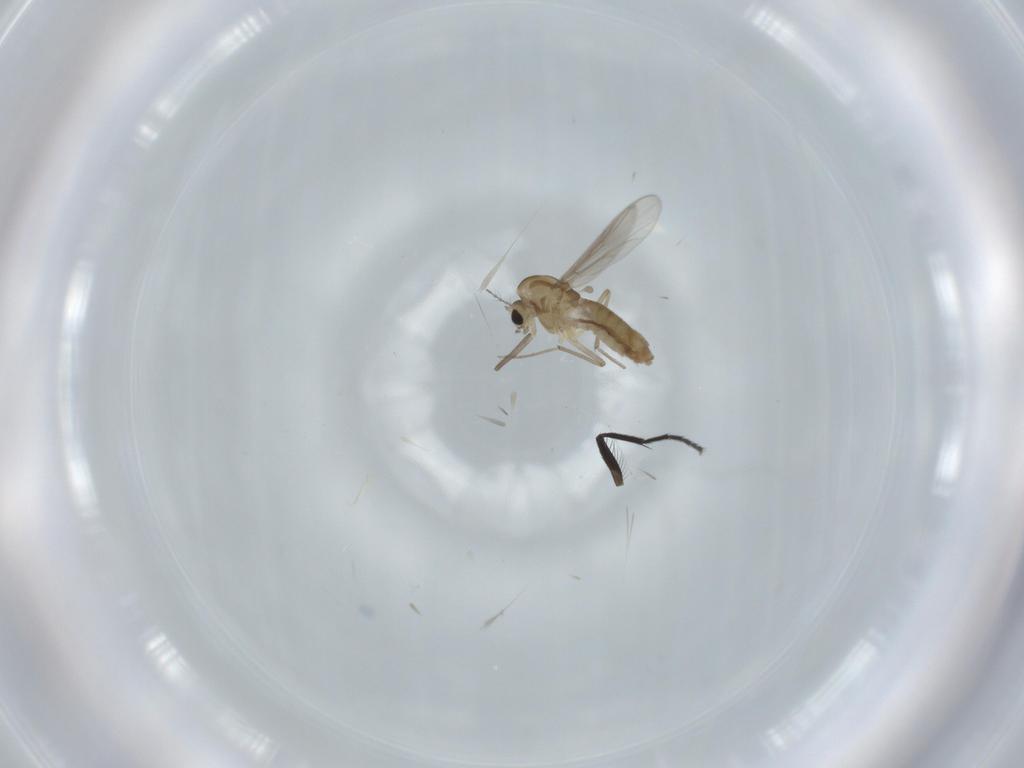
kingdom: Animalia
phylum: Arthropoda
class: Insecta
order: Diptera
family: Chironomidae
